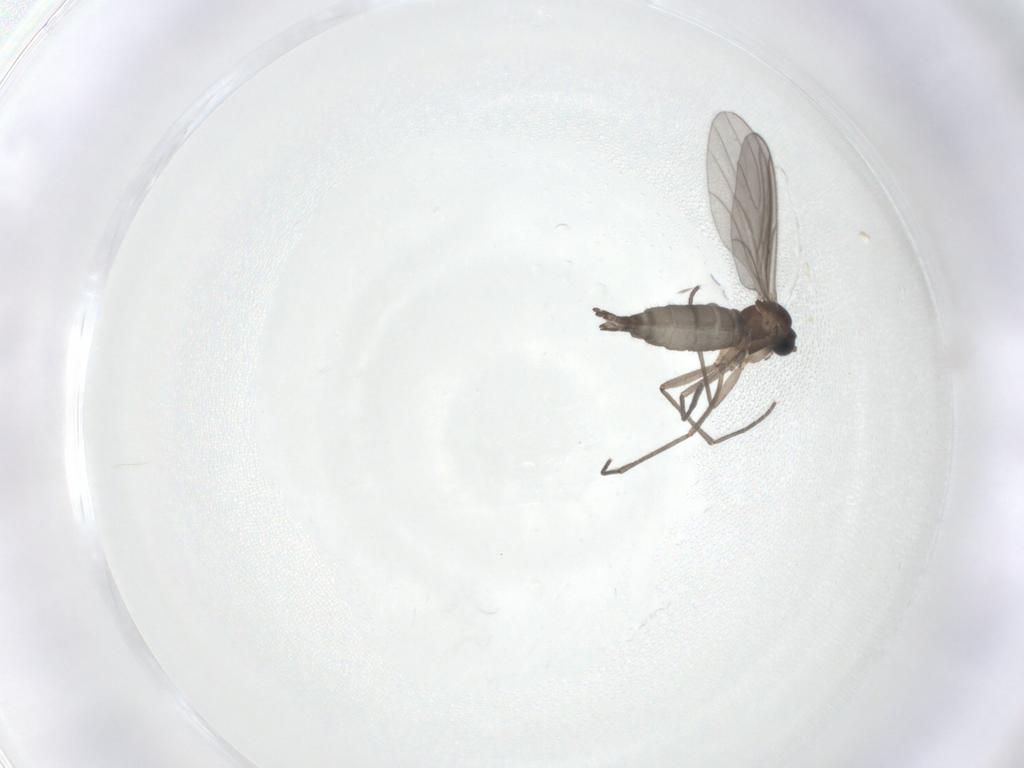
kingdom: Animalia
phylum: Arthropoda
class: Insecta
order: Diptera
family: Sciaridae
